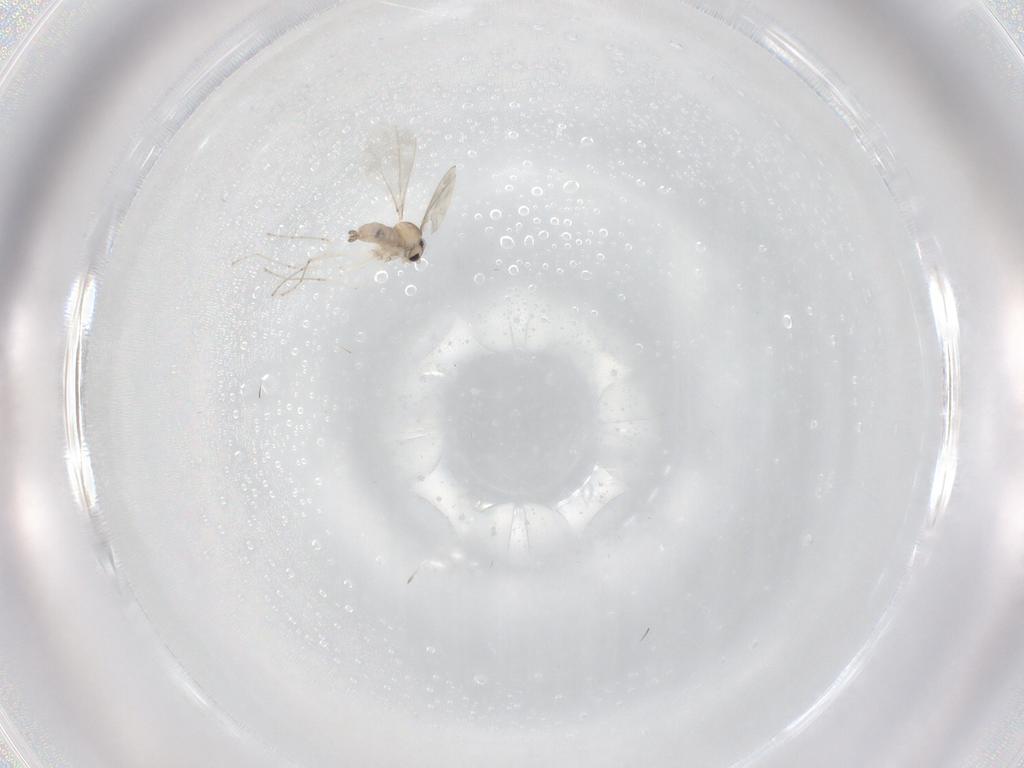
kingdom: Animalia
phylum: Arthropoda
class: Insecta
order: Diptera
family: Cecidomyiidae
